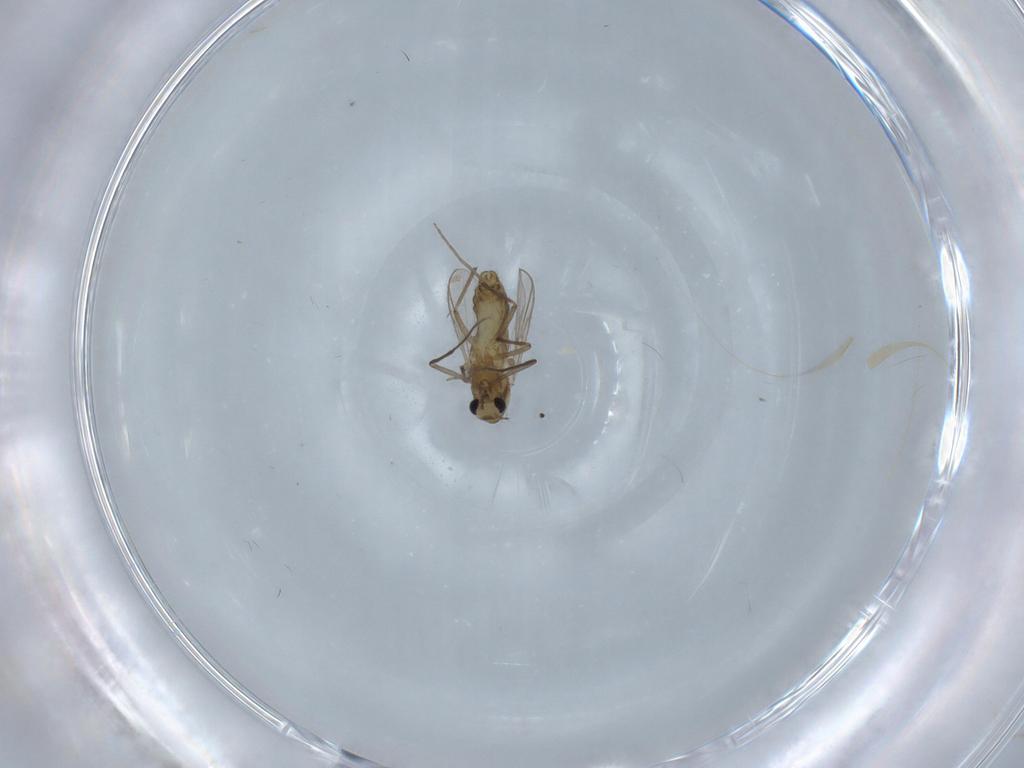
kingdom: Animalia
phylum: Arthropoda
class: Insecta
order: Diptera
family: Chironomidae
